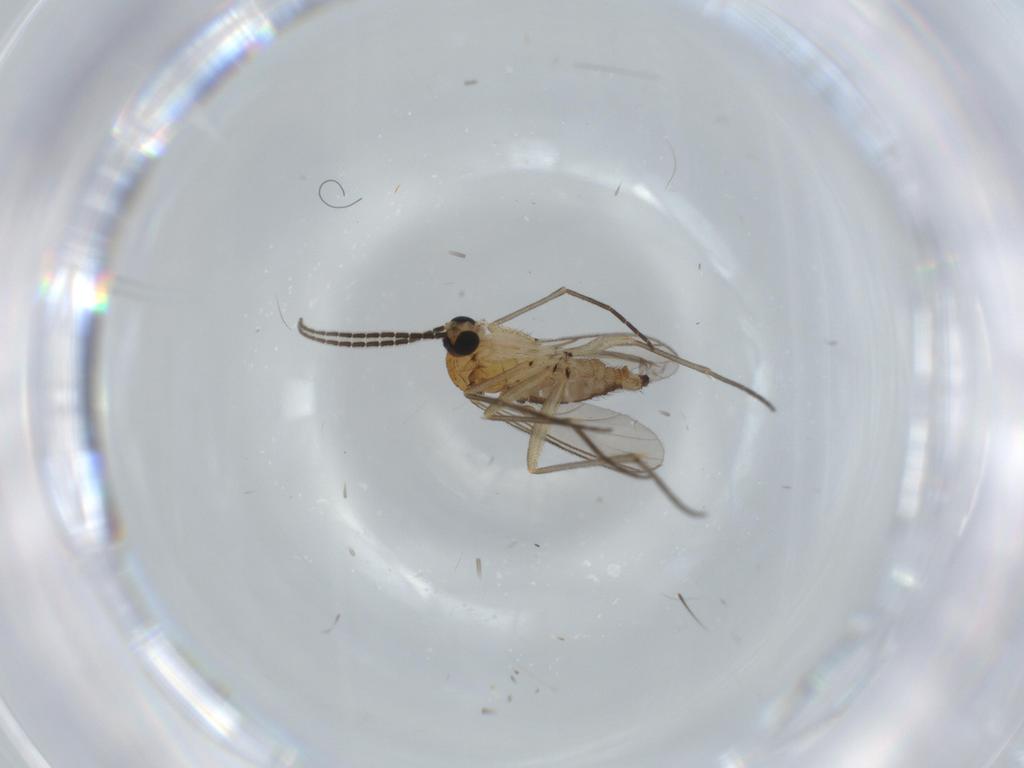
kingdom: Animalia
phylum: Arthropoda
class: Insecta
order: Diptera
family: Sciaridae
